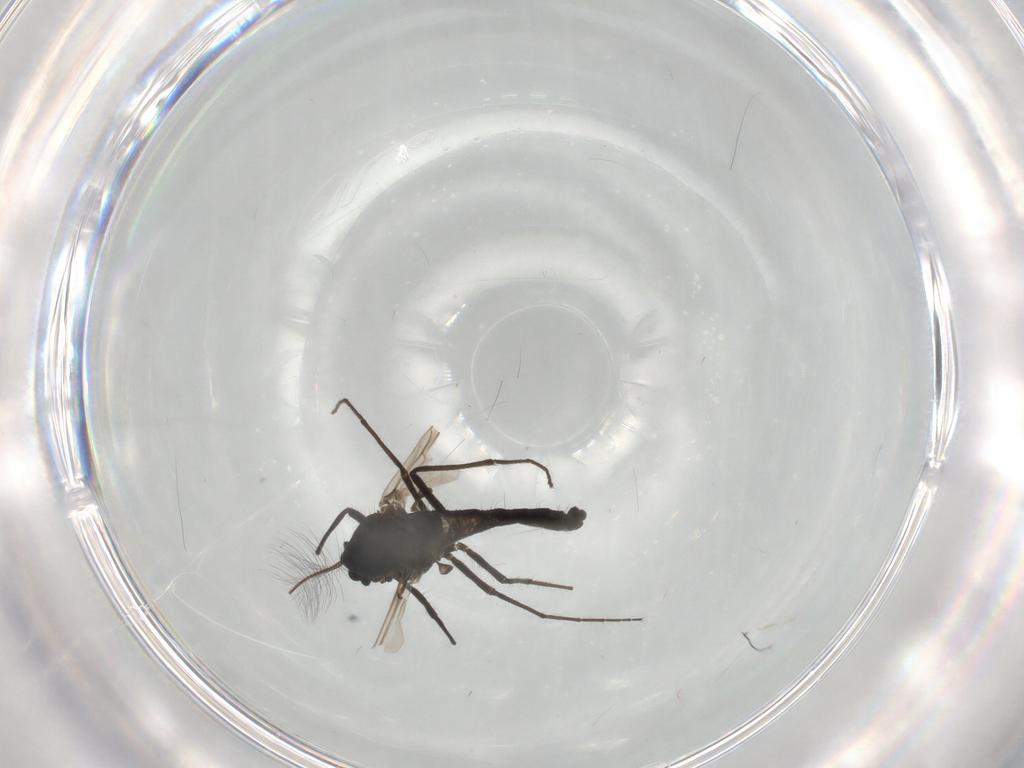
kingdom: Animalia
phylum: Arthropoda
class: Insecta
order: Diptera
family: Chironomidae
